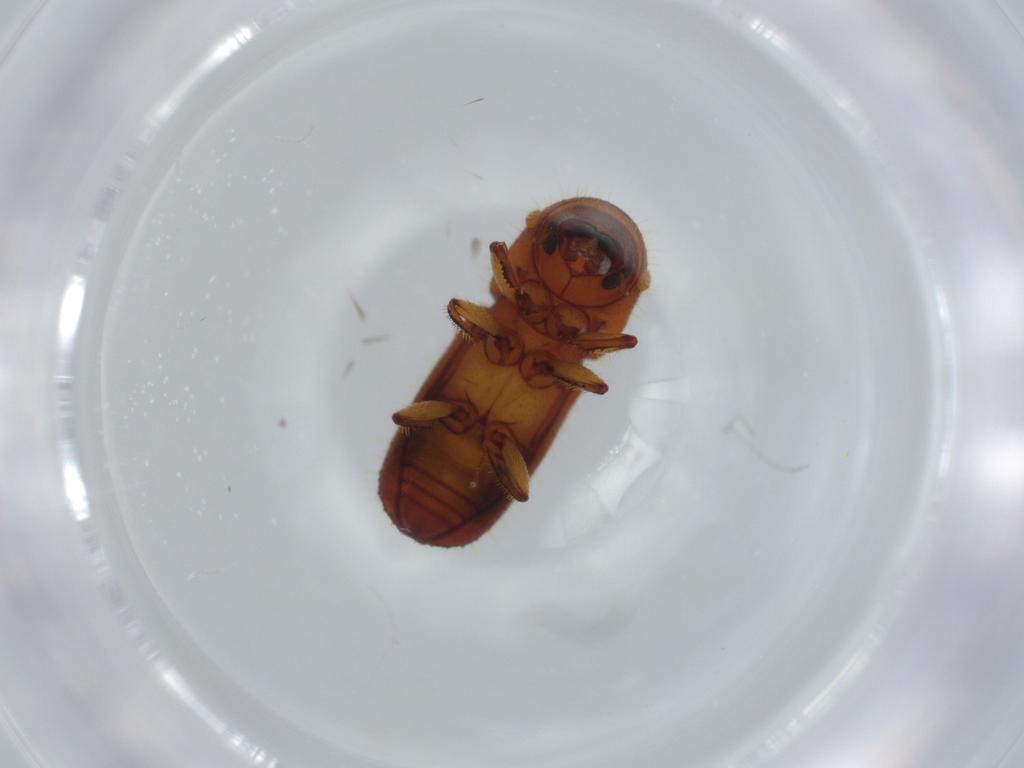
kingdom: Animalia
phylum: Arthropoda
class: Insecta
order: Coleoptera
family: Curculionidae
